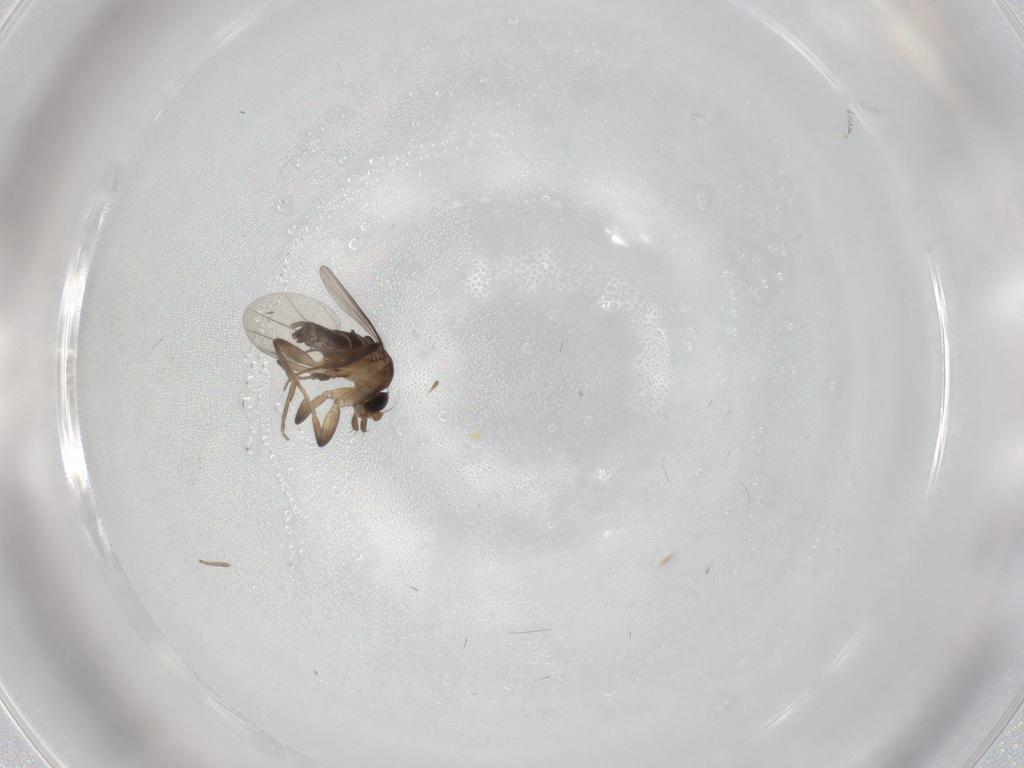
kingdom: Animalia
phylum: Arthropoda
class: Insecta
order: Diptera
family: Phoridae
